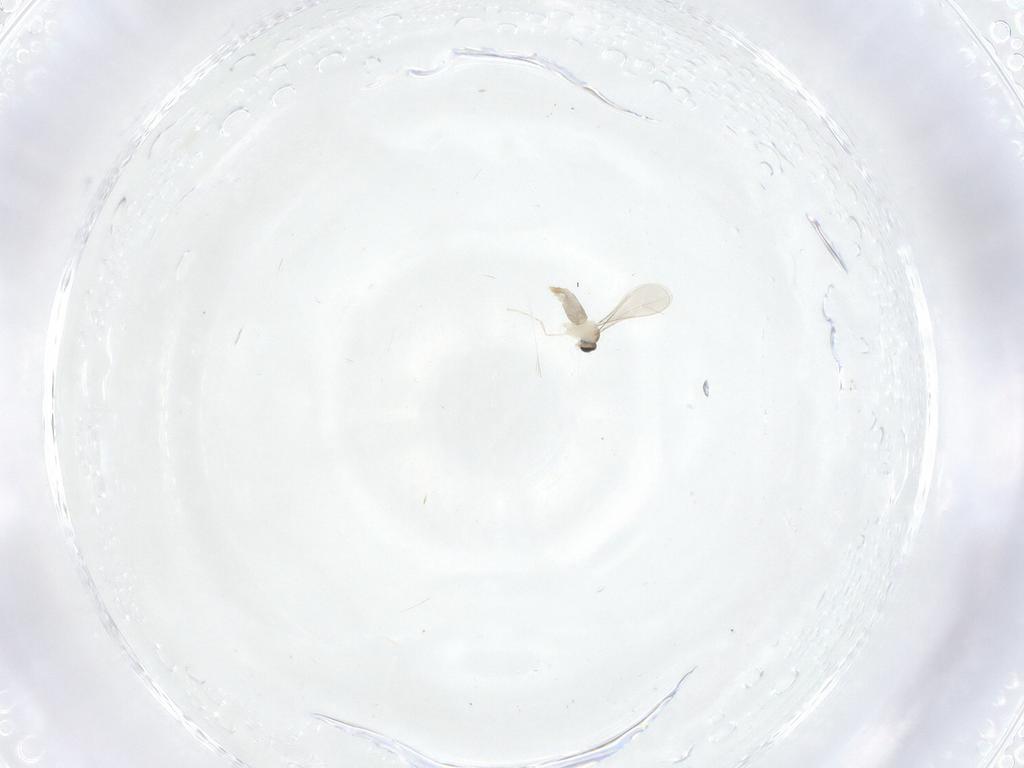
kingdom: Animalia
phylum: Arthropoda
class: Insecta
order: Diptera
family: Cecidomyiidae
